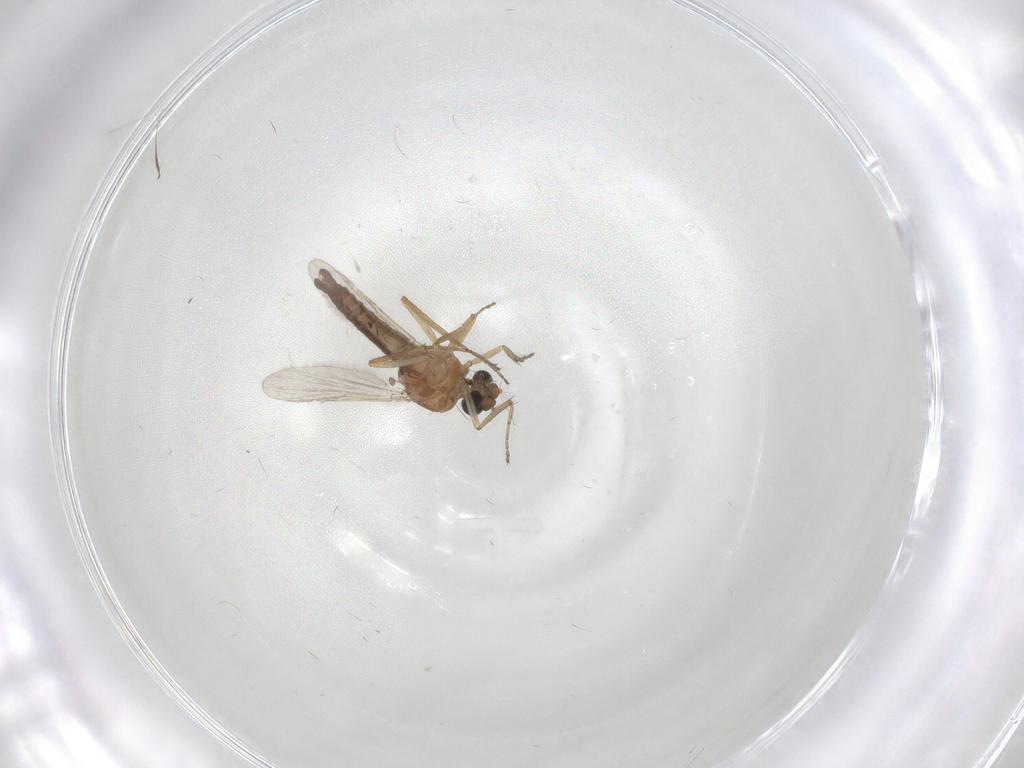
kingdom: Animalia
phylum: Arthropoda
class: Insecta
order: Diptera
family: Ceratopogonidae
